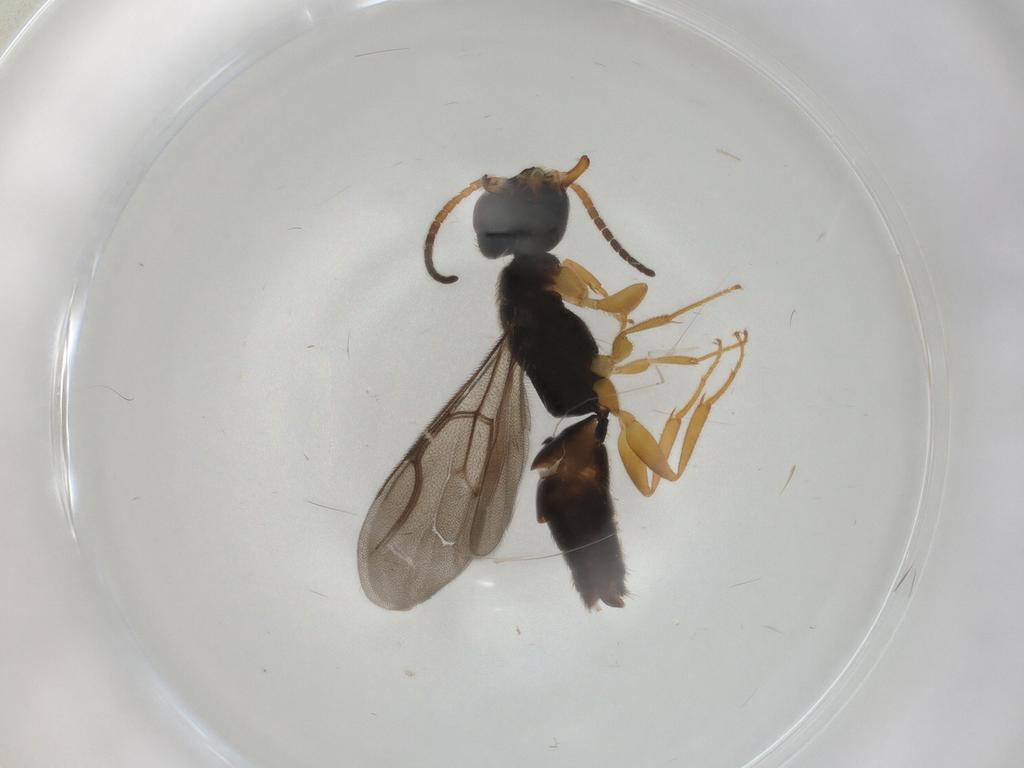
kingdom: Animalia
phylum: Arthropoda
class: Insecta
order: Hymenoptera
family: Bethylidae
